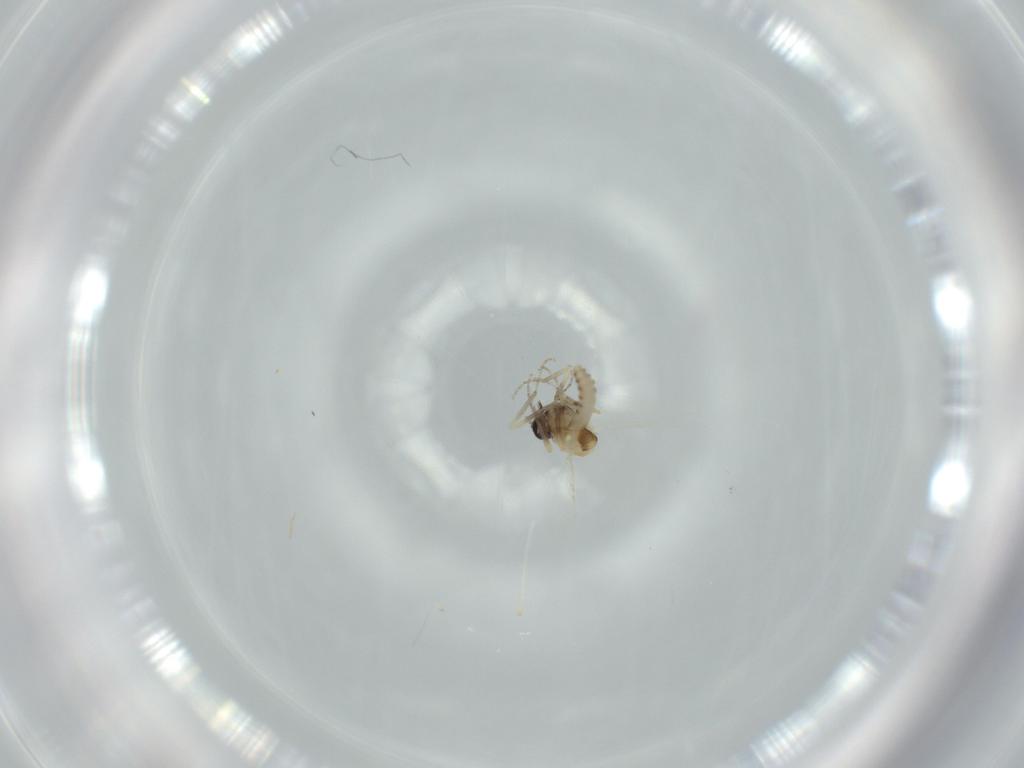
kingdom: Animalia
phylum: Arthropoda
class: Insecta
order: Diptera
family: Ceratopogonidae
